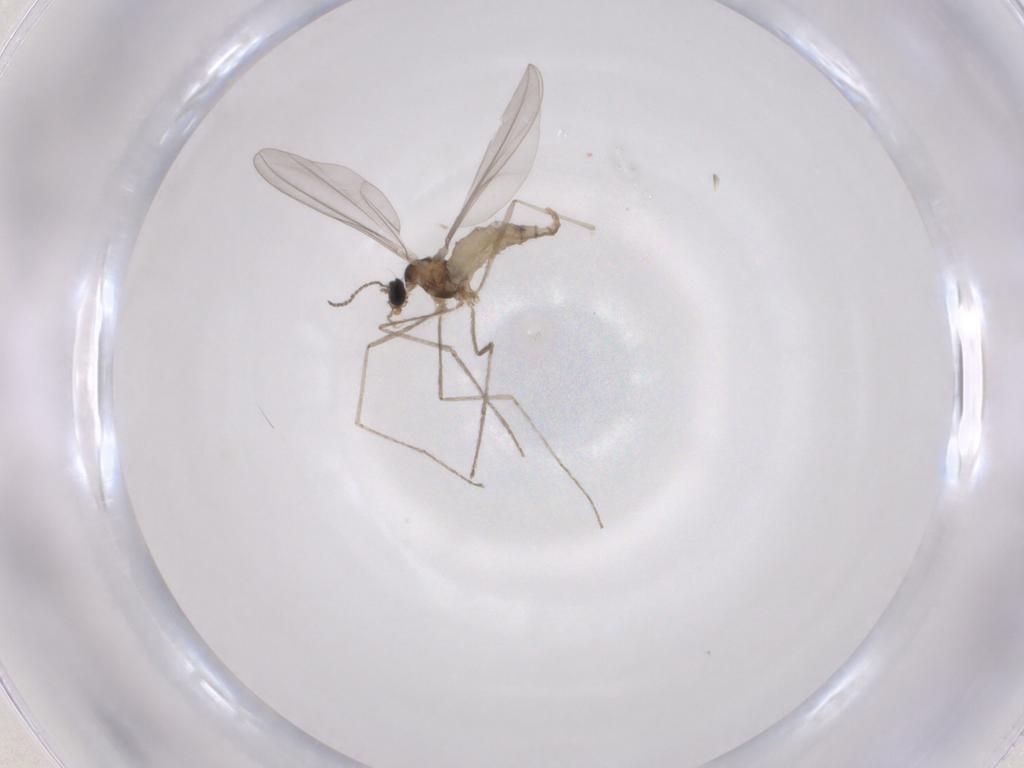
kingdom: Animalia
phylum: Arthropoda
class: Insecta
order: Diptera
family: Cecidomyiidae
